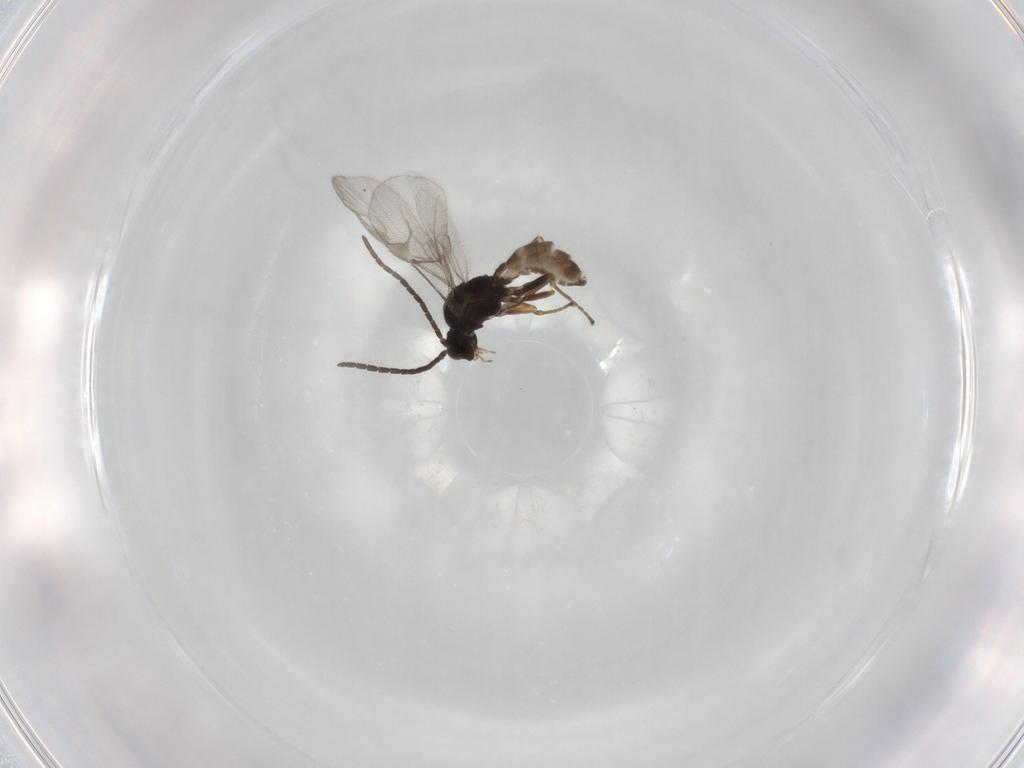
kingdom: Animalia
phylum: Arthropoda
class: Insecta
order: Hymenoptera
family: Braconidae
